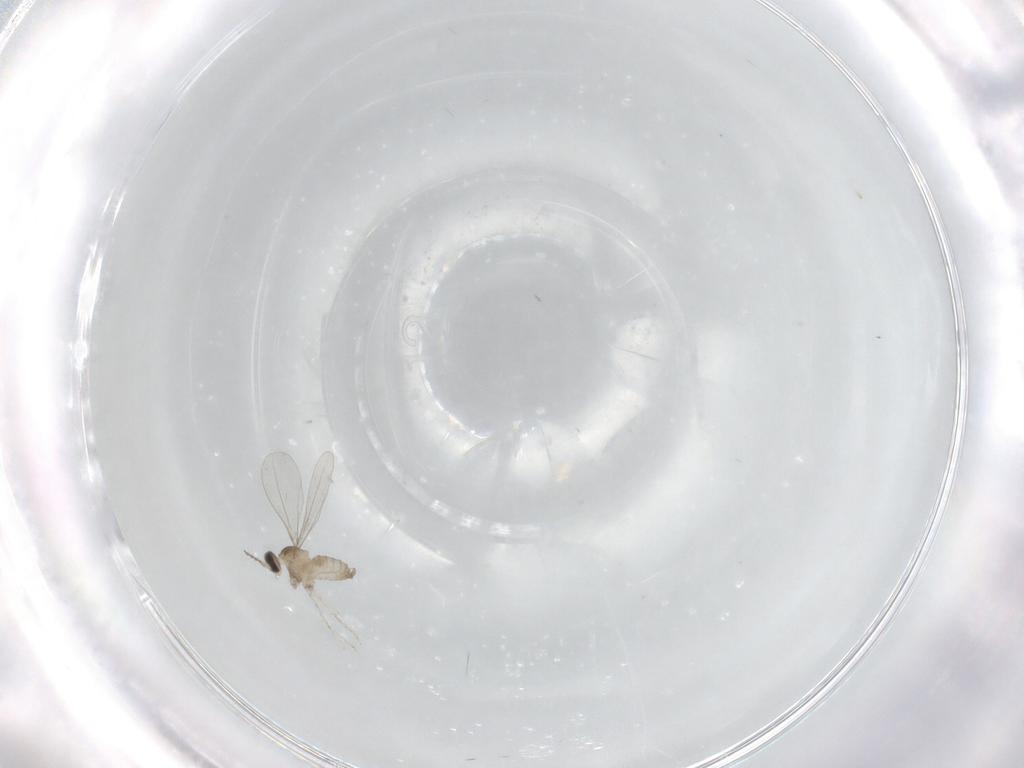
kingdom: Animalia
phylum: Arthropoda
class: Insecta
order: Diptera
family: Cecidomyiidae
